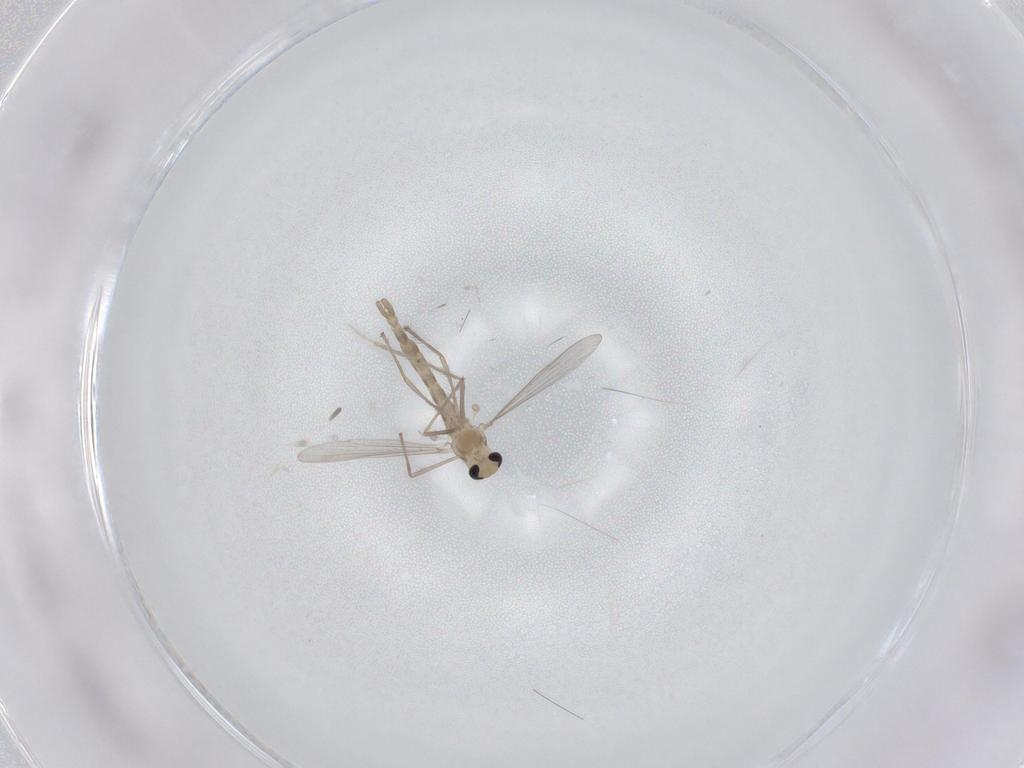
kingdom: Animalia
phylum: Arthropoda
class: Insecta
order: Diptera
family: Chironomidae
